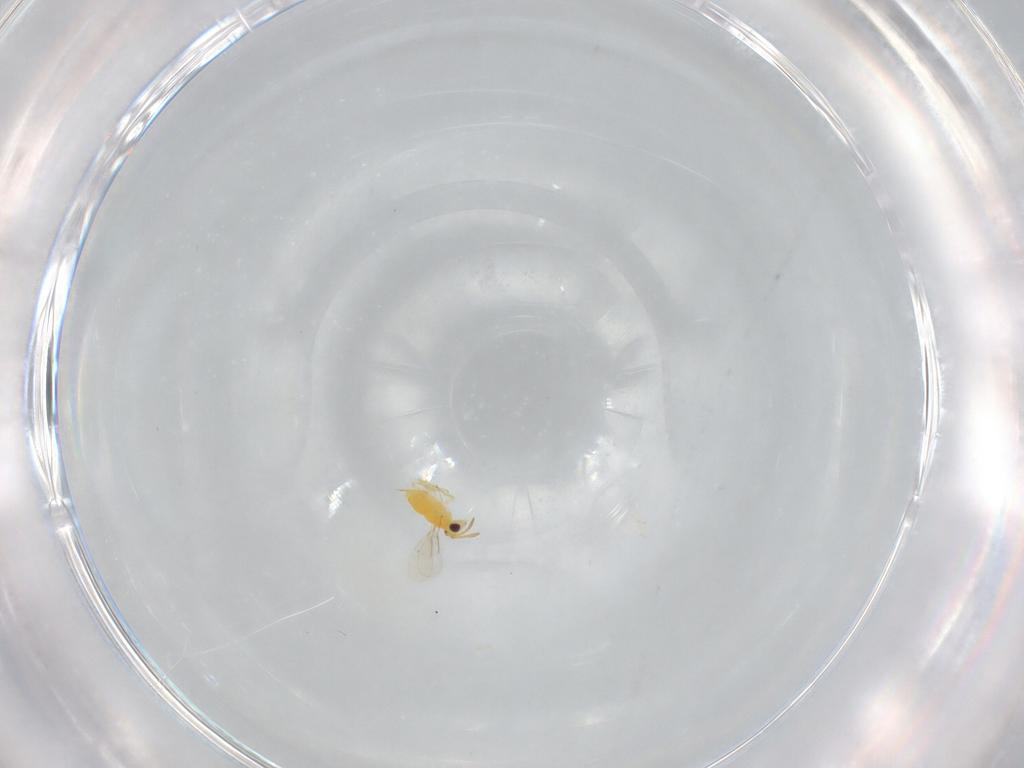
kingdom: Animalia
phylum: Arthropoda
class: Insecta
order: Hymenoptera
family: Aphelinidae
